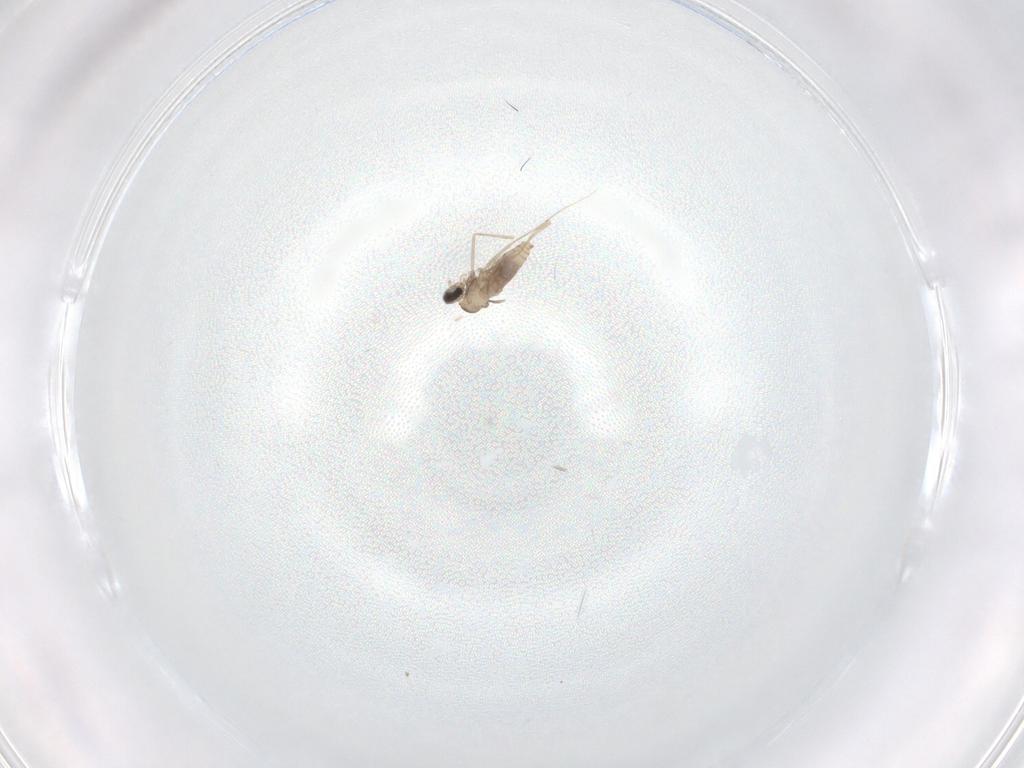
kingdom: Animalia
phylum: Arthropoda
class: Insecta
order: Diptera
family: Cecidomyiidae
